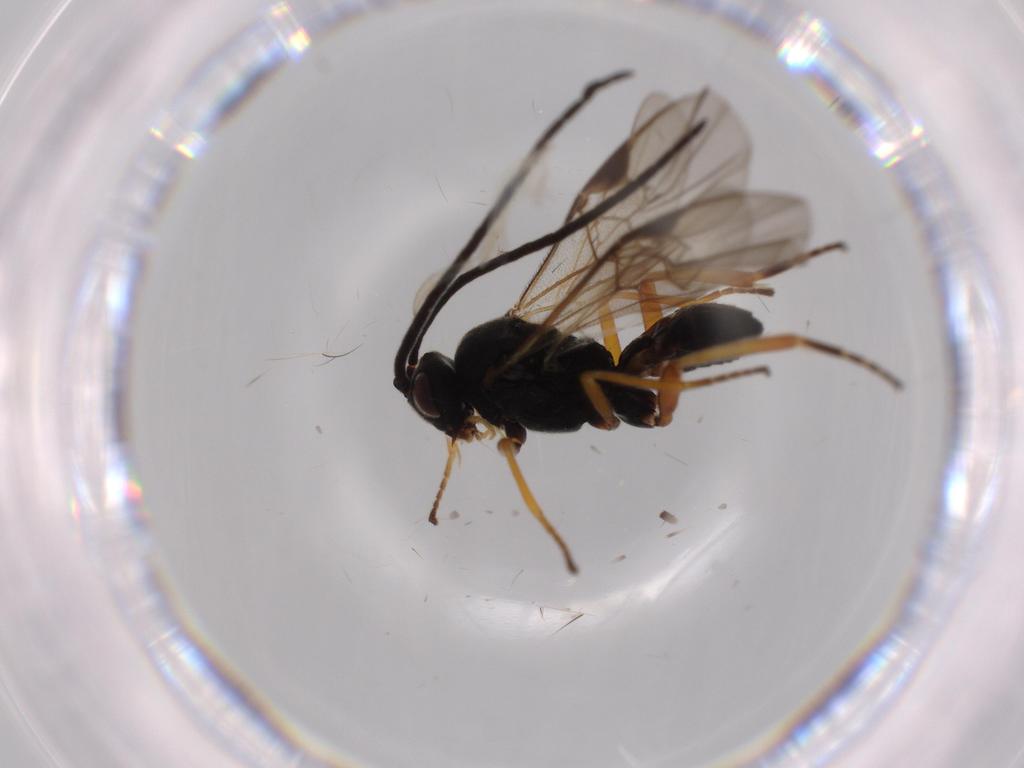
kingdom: Animalia
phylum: Arthropoda
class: Insecta
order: Hymenoptera
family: Braconidae
